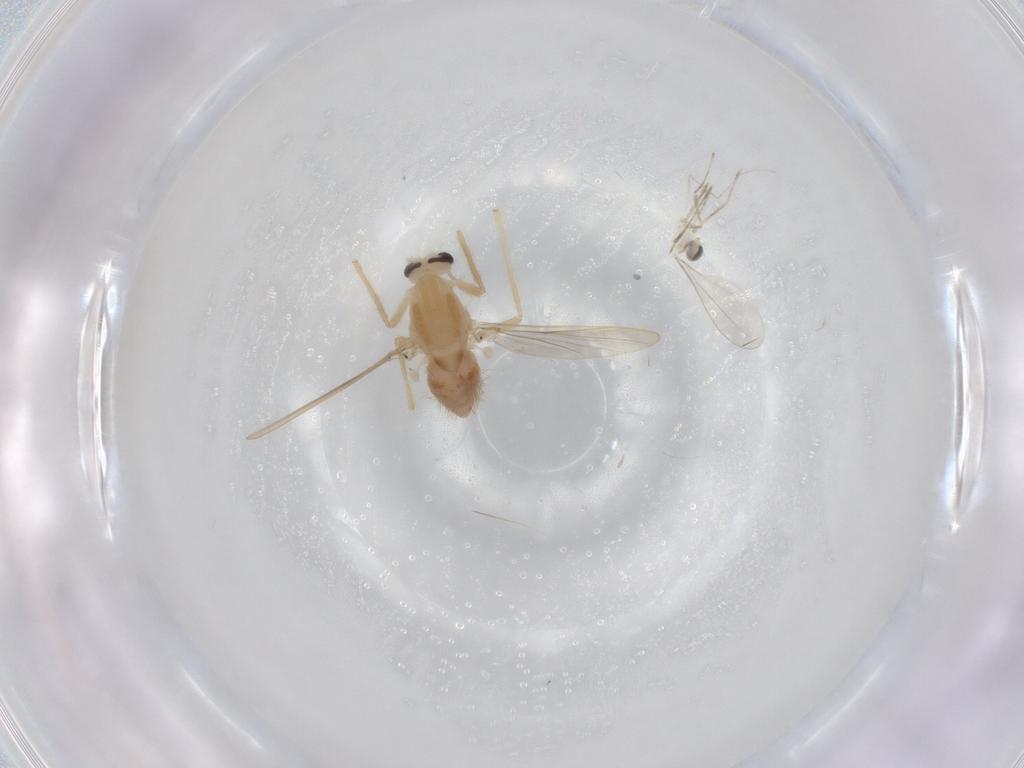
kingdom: Animalia
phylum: Arthropoda
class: Insecta
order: Diptera
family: Chironomidae
